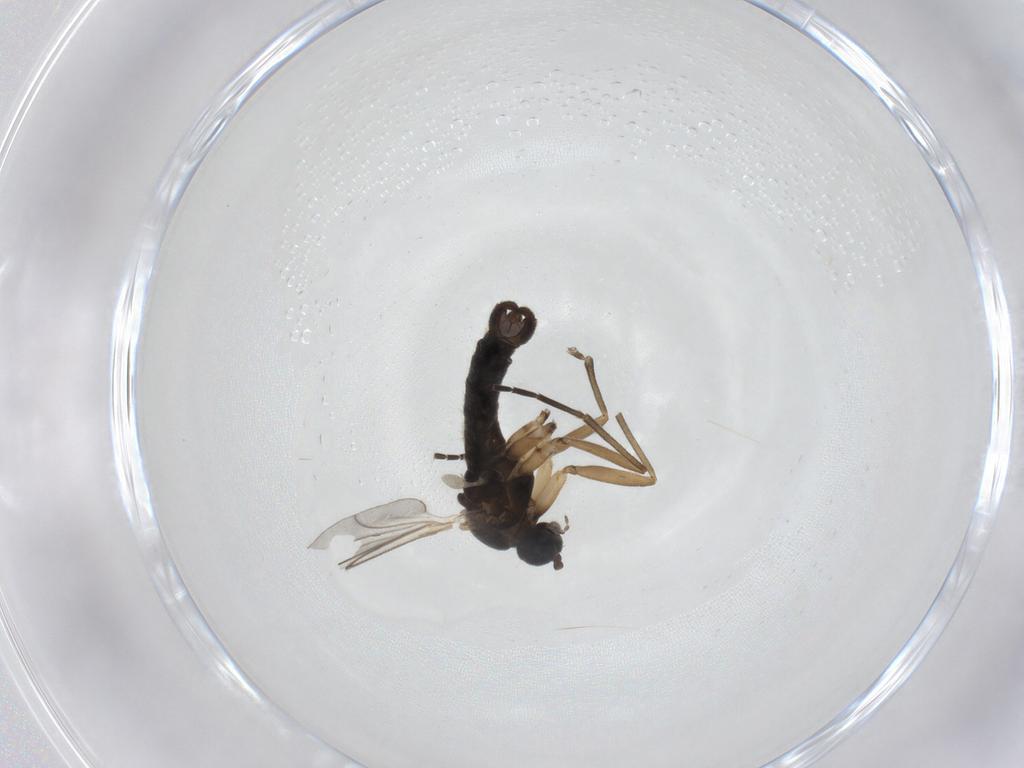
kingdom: Animalia
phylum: Arthropoda
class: Insecta
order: Diptera
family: Sciaridae
